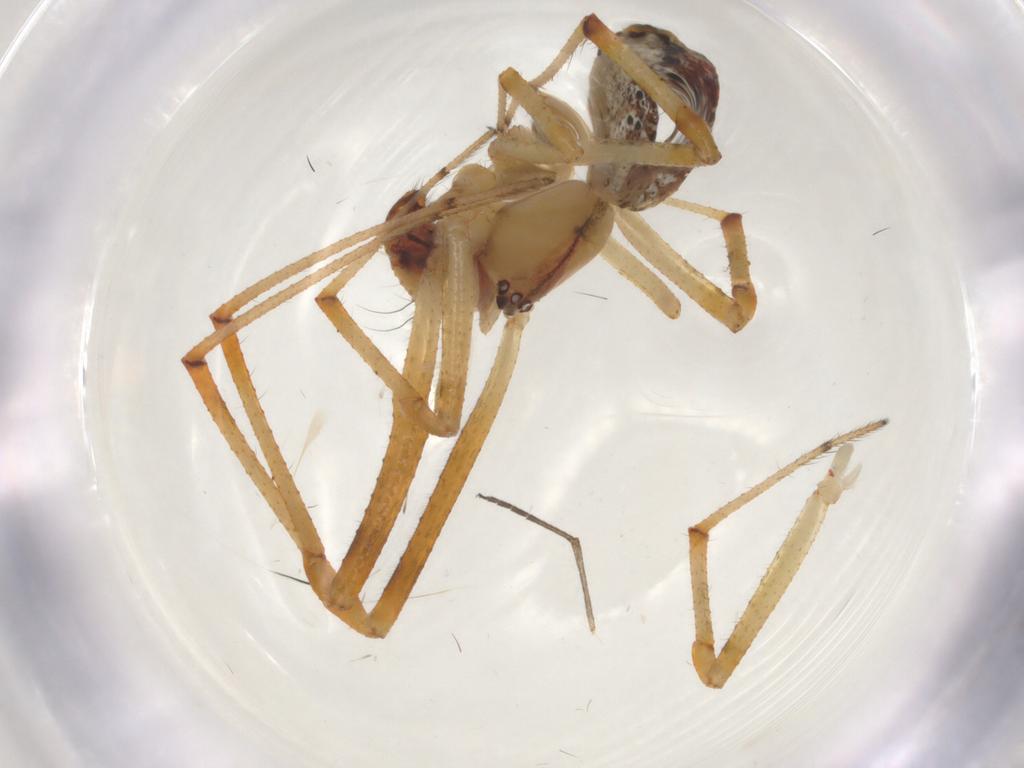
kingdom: Animalia
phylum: Arthropoda
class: Arachnida
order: Araneae
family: Theridiidae
